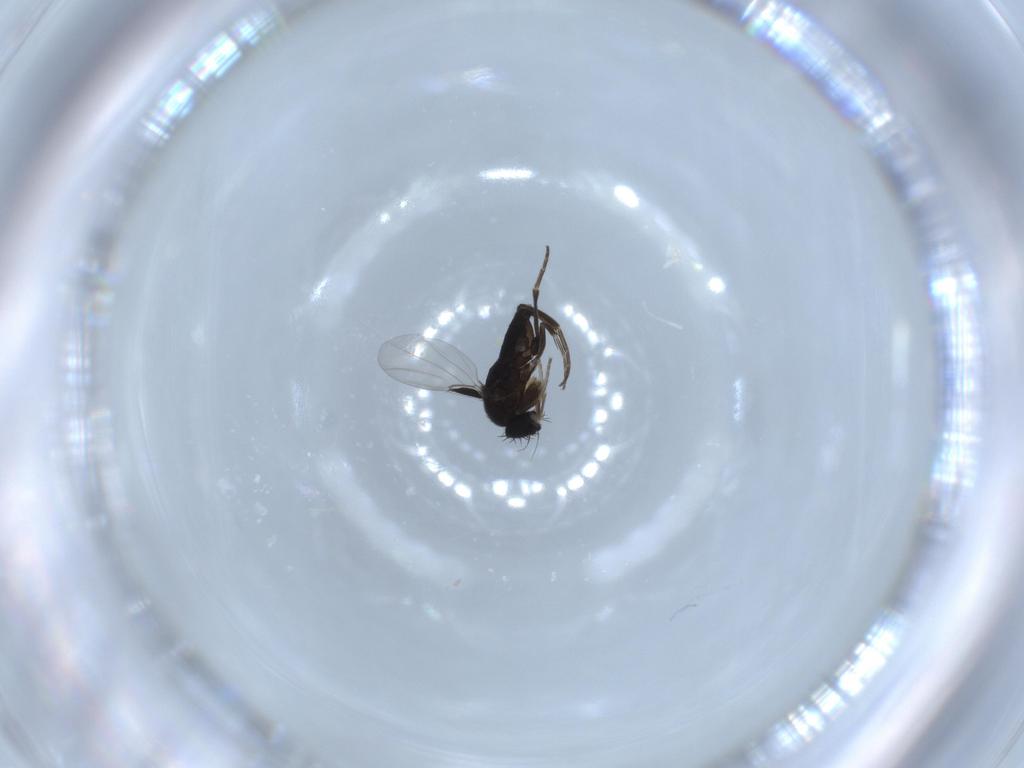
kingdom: Animalia
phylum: Arthropoda
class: Insecta
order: Diptera
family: Phoridae
